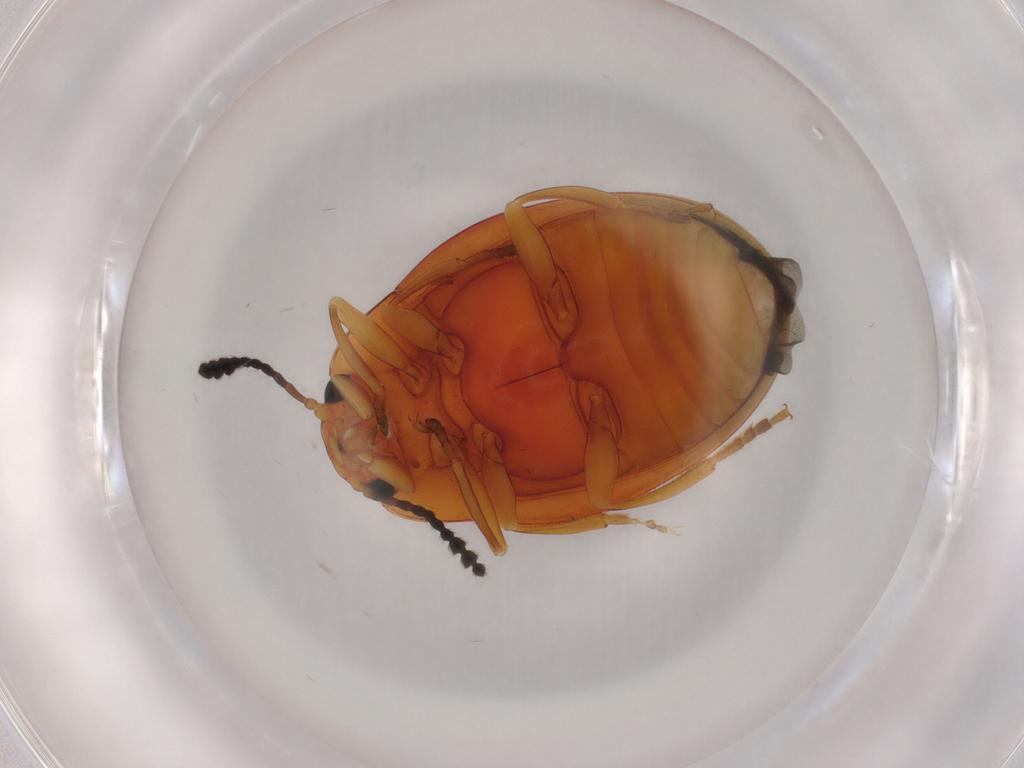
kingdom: Animalia
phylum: Arthropoda
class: Insecta
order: Coleoptera
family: Erotylidae
